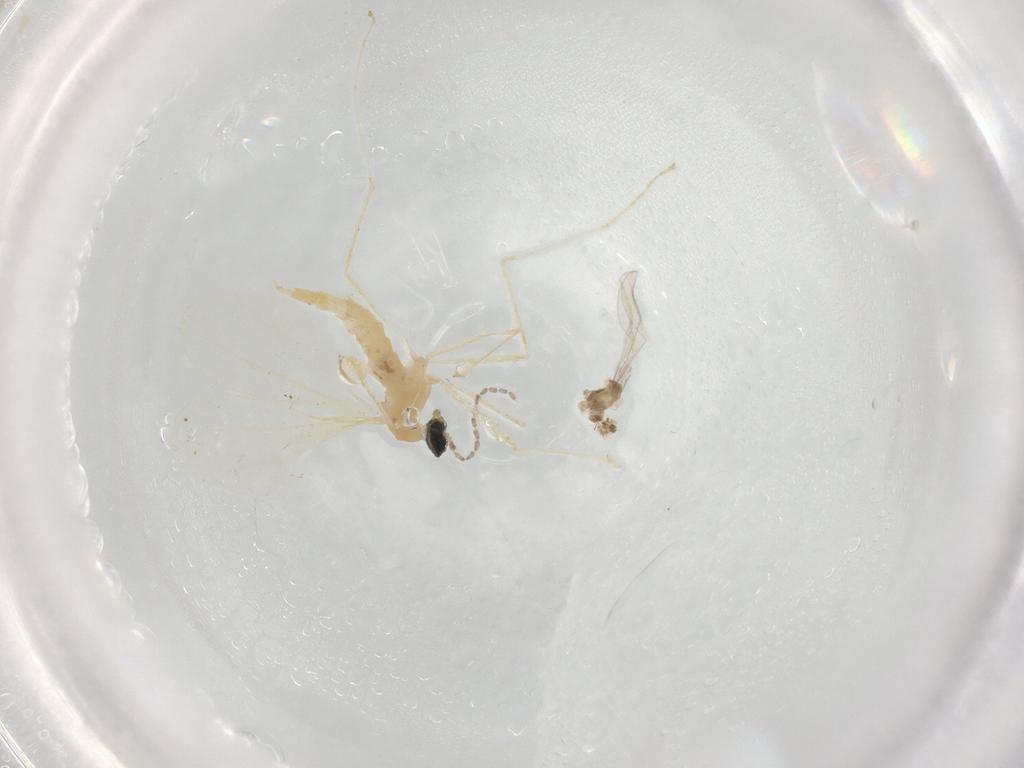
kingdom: Animalia
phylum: Arthropoda
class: Insecta
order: Diptera
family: Cecidomyiidae
